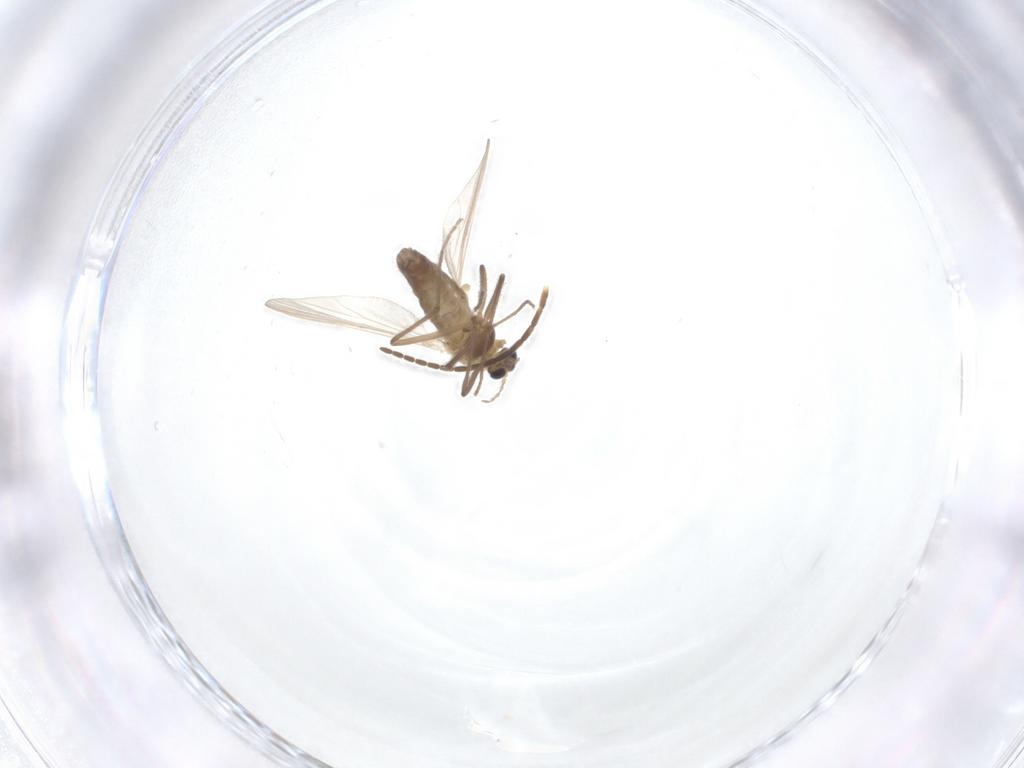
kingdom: Animalia
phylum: Arthropoda
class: Insecta
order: Diptera
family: Chironomidae
